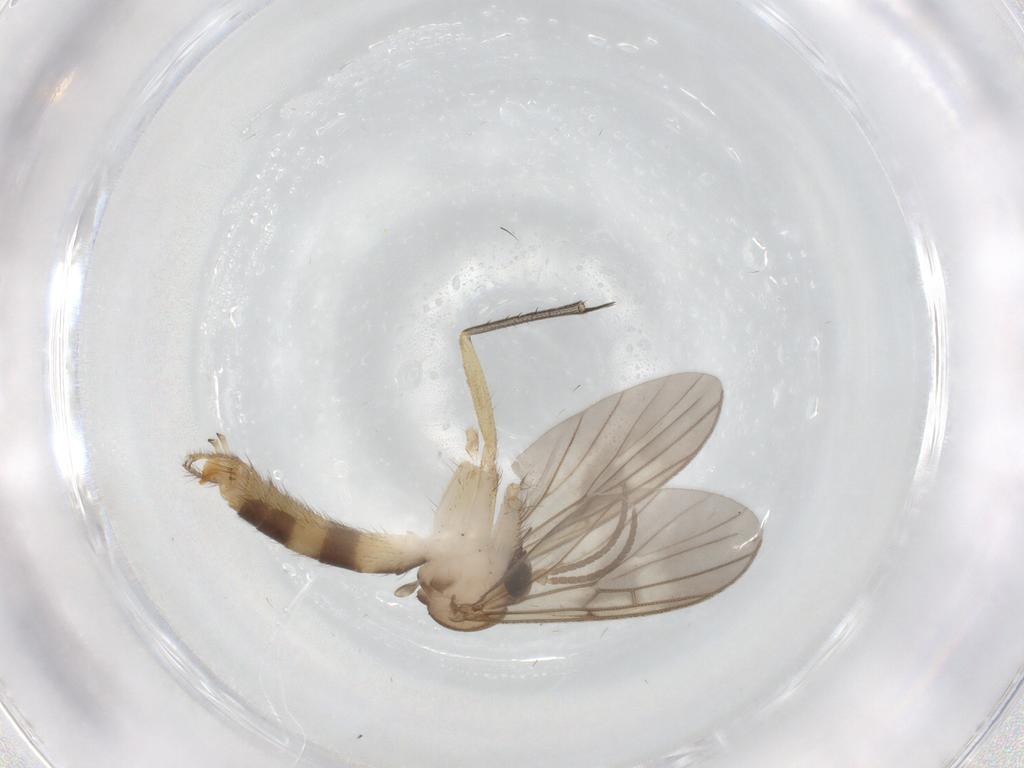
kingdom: Animalia
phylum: Arthropoda
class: Insecta
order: Diptera
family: Mycetophilidae
